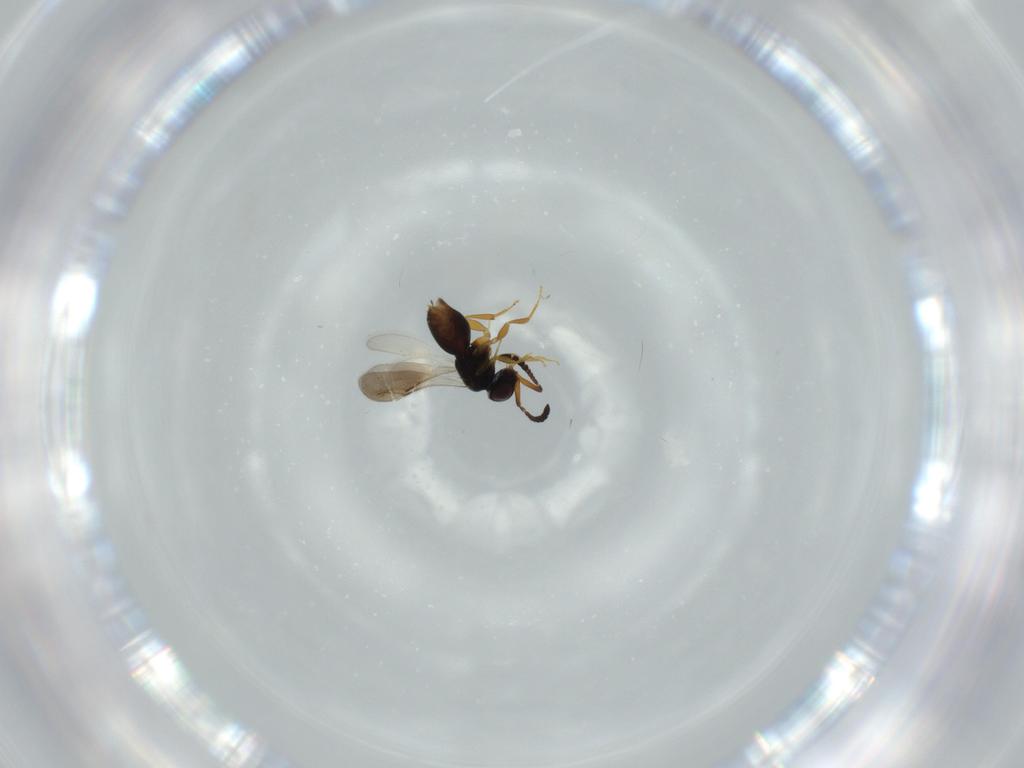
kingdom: Animalia
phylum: Arthropoda
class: Insecta
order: Hymenoptera
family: Ceraphronidae
